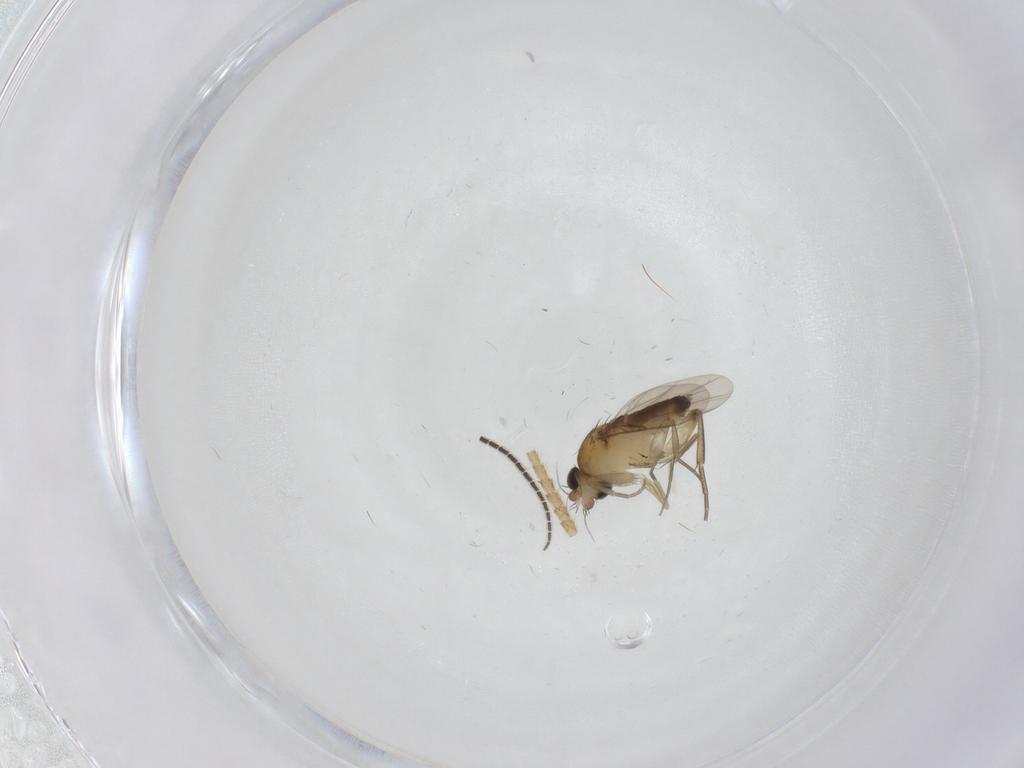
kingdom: Animalia
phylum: Arthropoda
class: Insecta
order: Diptera
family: Phoridae
